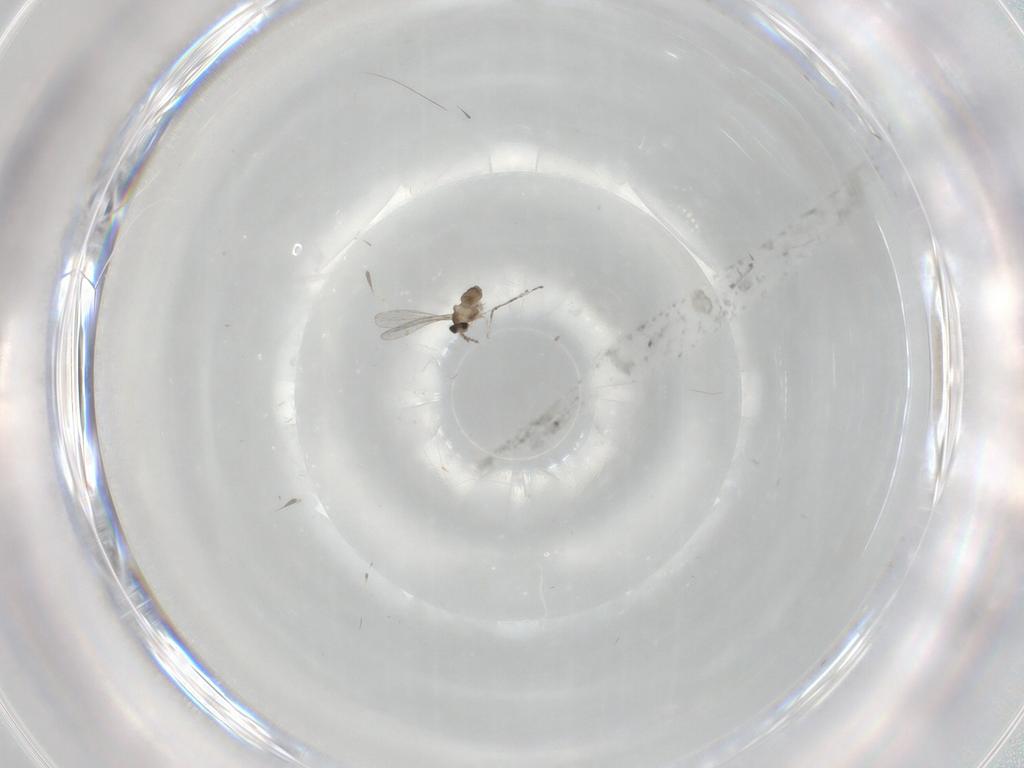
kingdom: Animalia
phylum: Arthropoda
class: Insecta
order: Diptera
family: Cecidomyiidae
